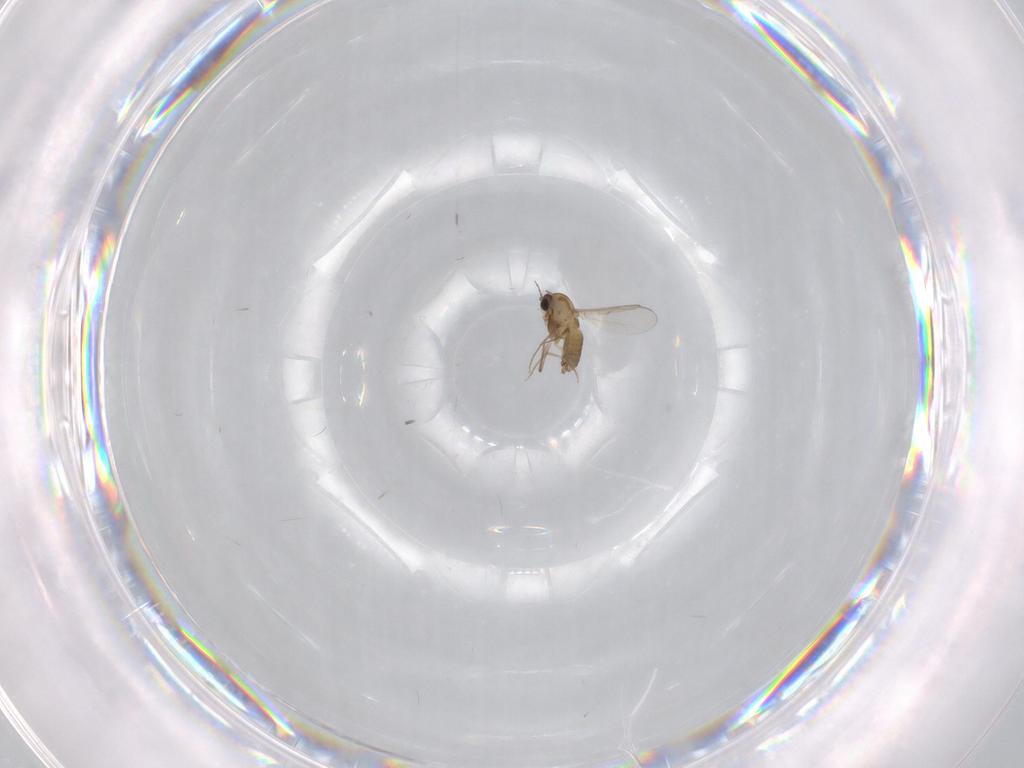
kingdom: Animalia
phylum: Arthropoda
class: Insecta
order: Diptera
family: Chironomidae
